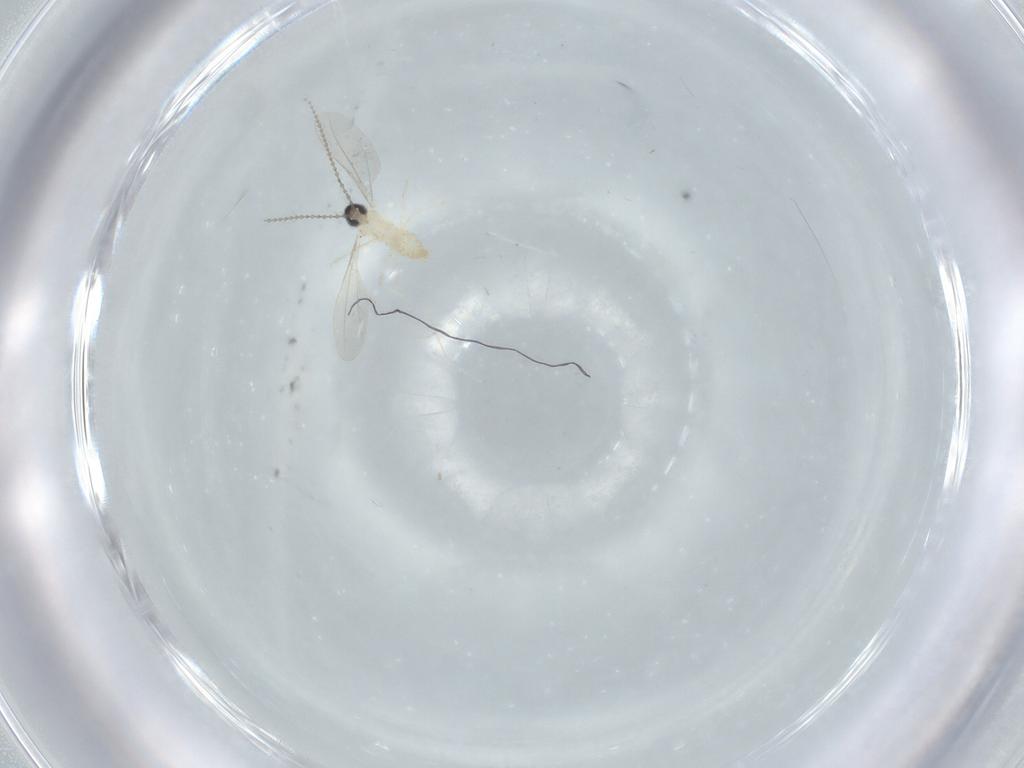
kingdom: Animalia
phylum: Arthropoda
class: Insecta
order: Diptera
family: Cecidomyiidae
